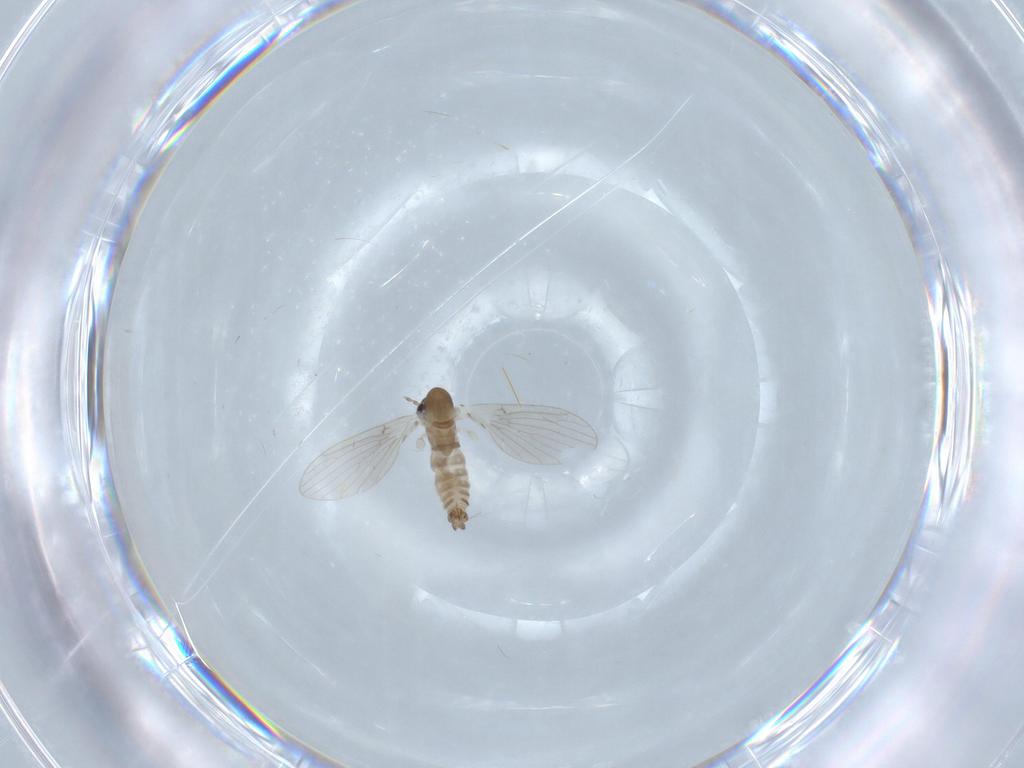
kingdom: Animalia
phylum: Arthropoda
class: Insecta
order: Diptera
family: Psychodidae
